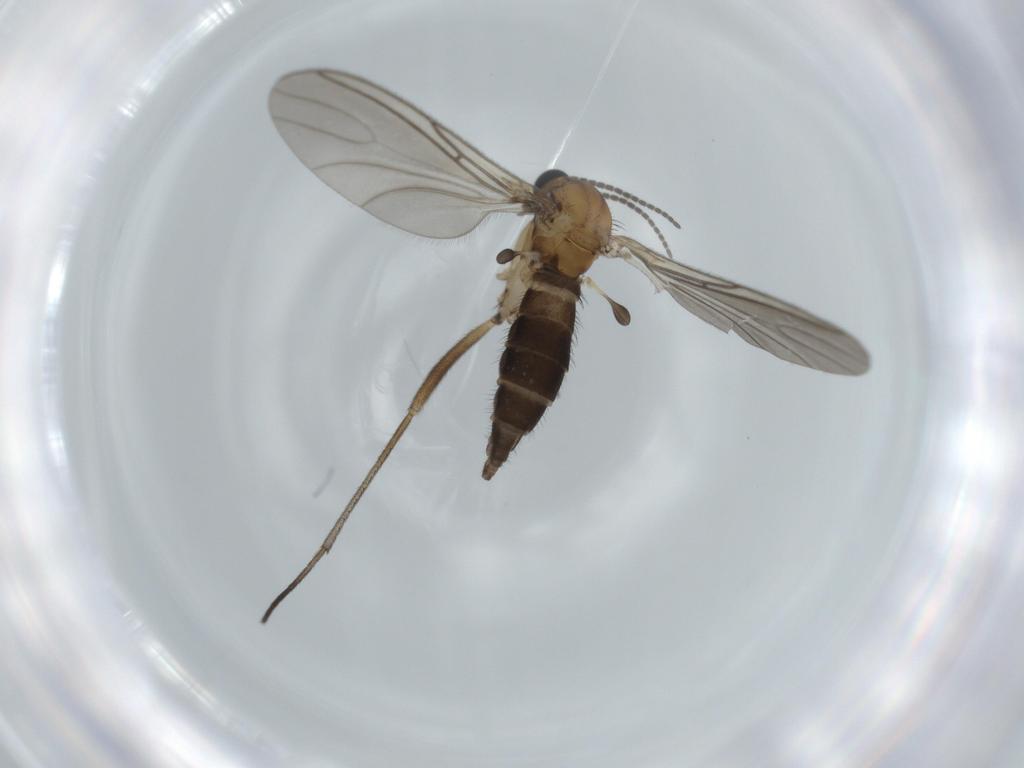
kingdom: Animalia
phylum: Arthropoda
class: Insecta
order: Diptera
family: Sciaridae
